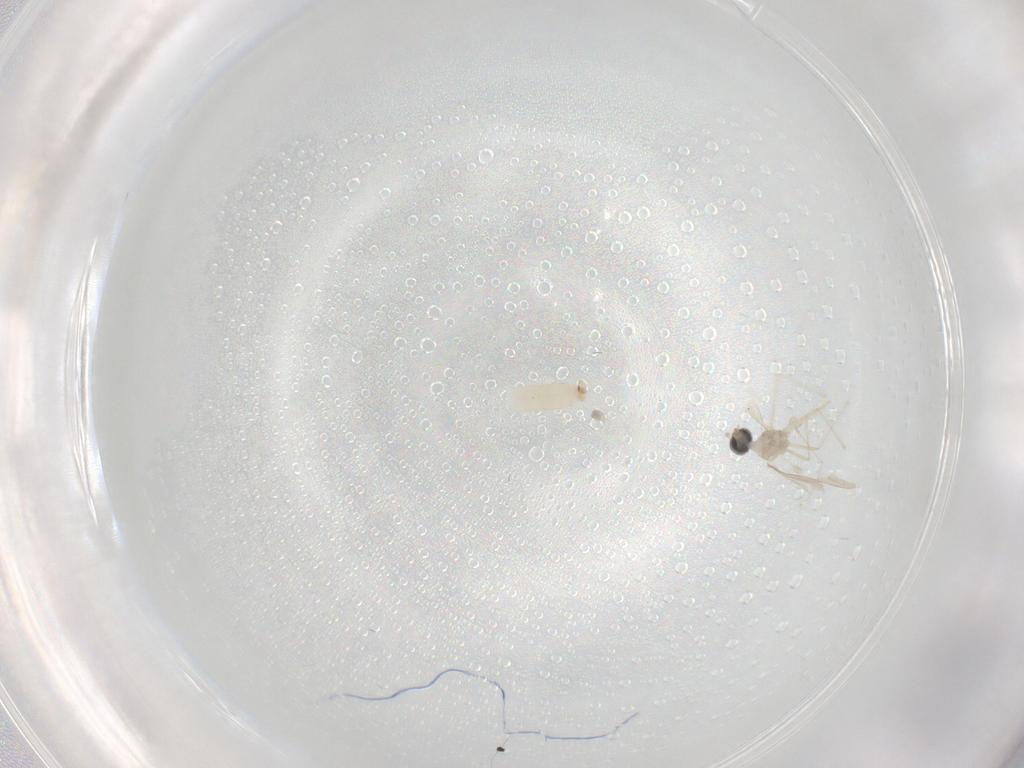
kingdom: Animalia
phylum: Arthropoda
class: Insecta
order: Diptera
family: Cecidomyiidae
